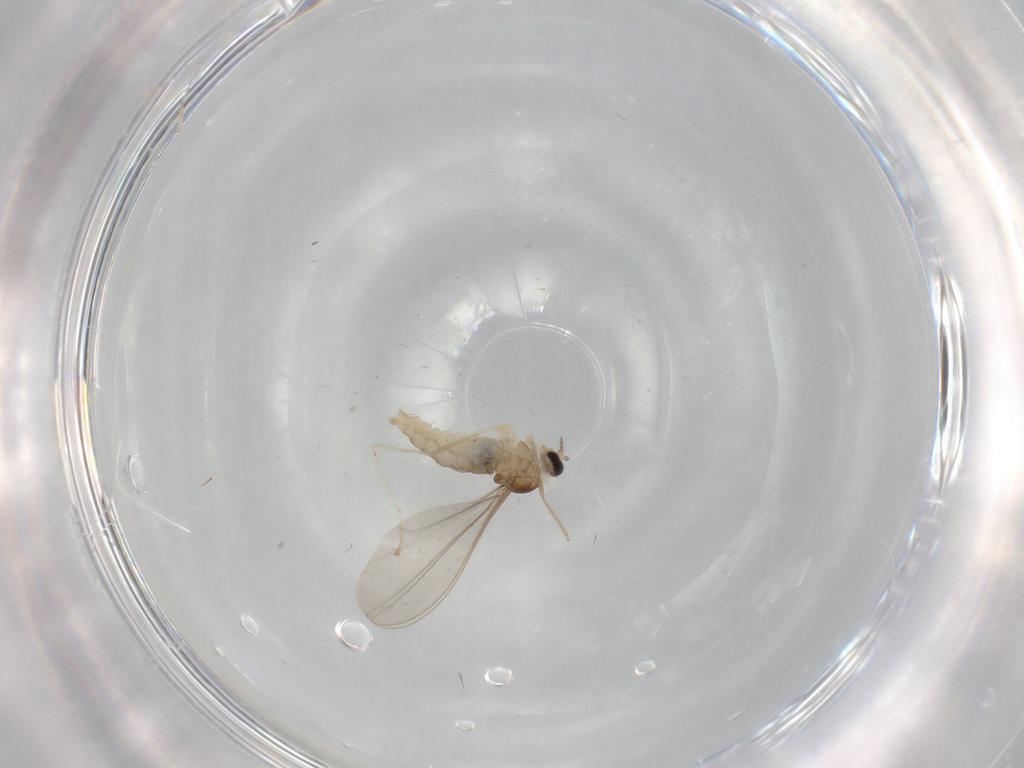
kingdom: Animalia
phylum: Arthropoda
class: Insecta
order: Diptera
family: Cecidomyiidae
